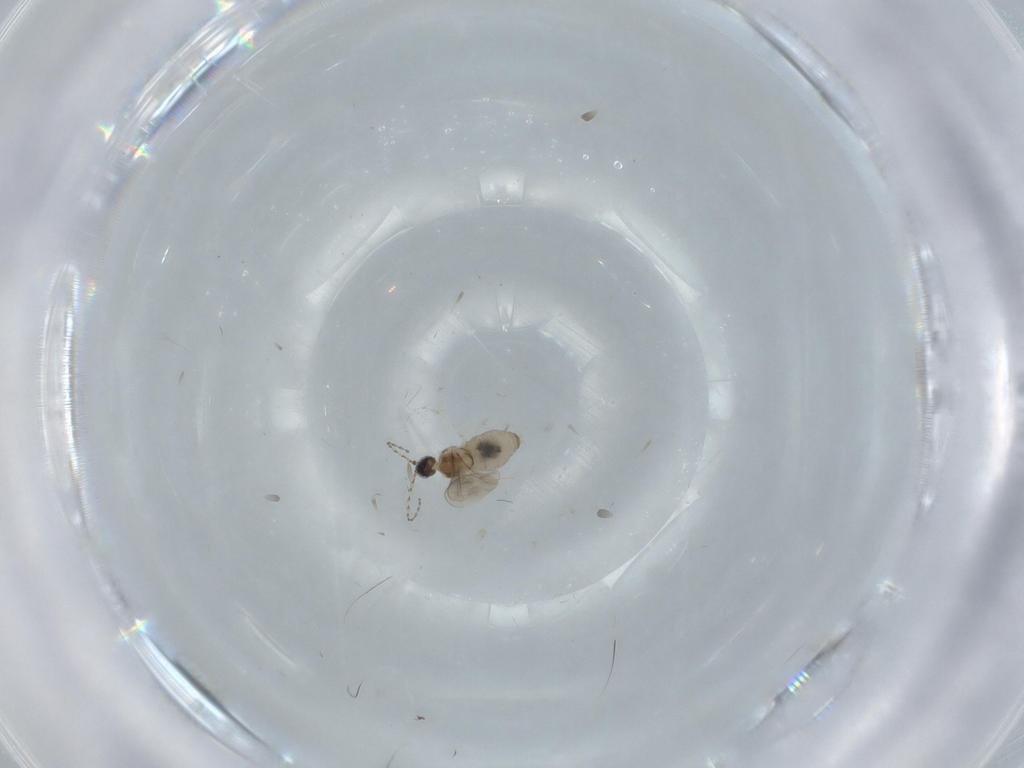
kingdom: Animalia
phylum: Arthropoda
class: Insecta
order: Diptera
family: Cecidomyiidae
